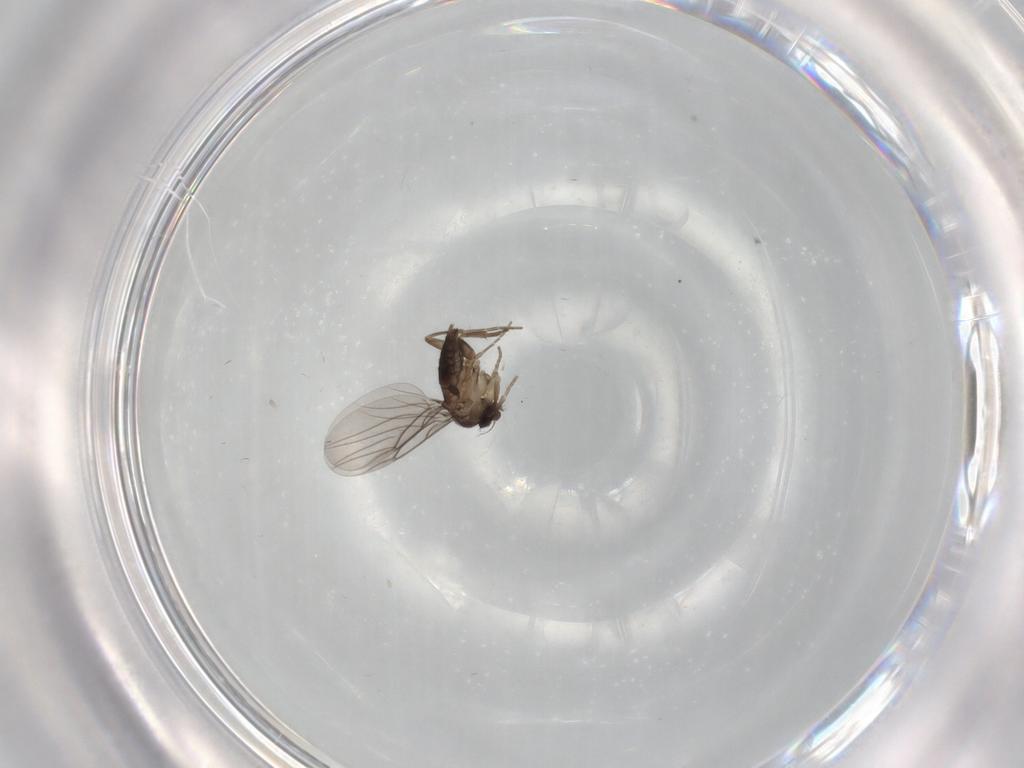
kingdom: Animalia
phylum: Arthropoda
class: Insecta
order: Diptera
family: Phoridae
